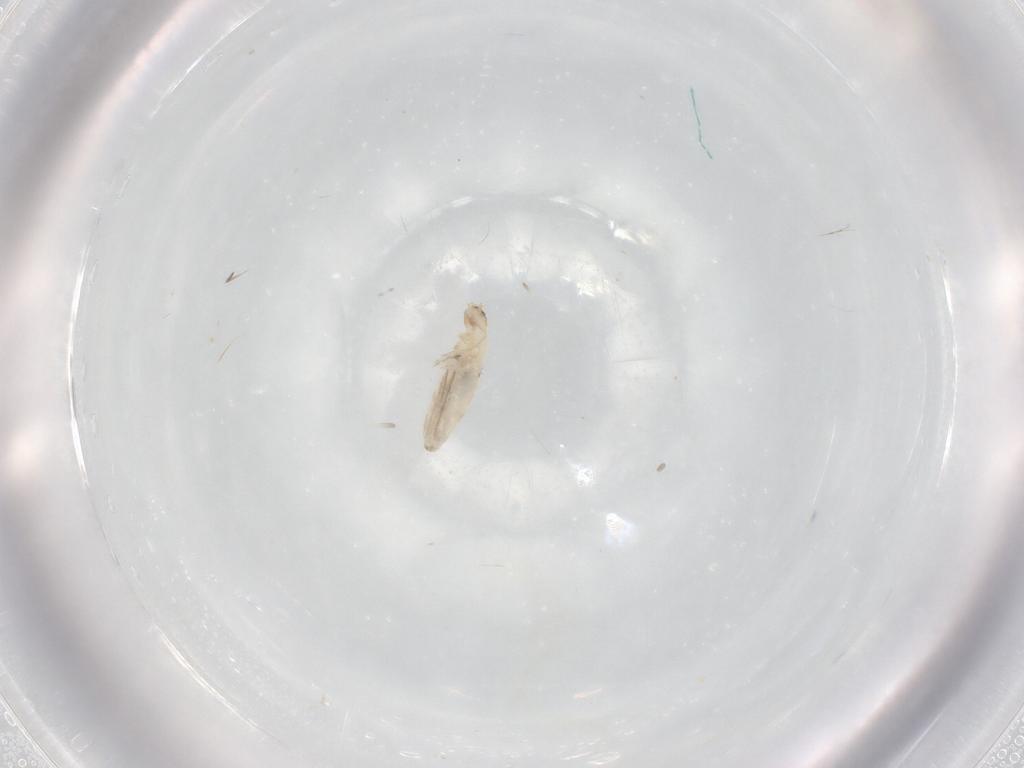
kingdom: Animalia
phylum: Arthropoda
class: Collembola
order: Entomobryomorpha
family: Entomobryidae
